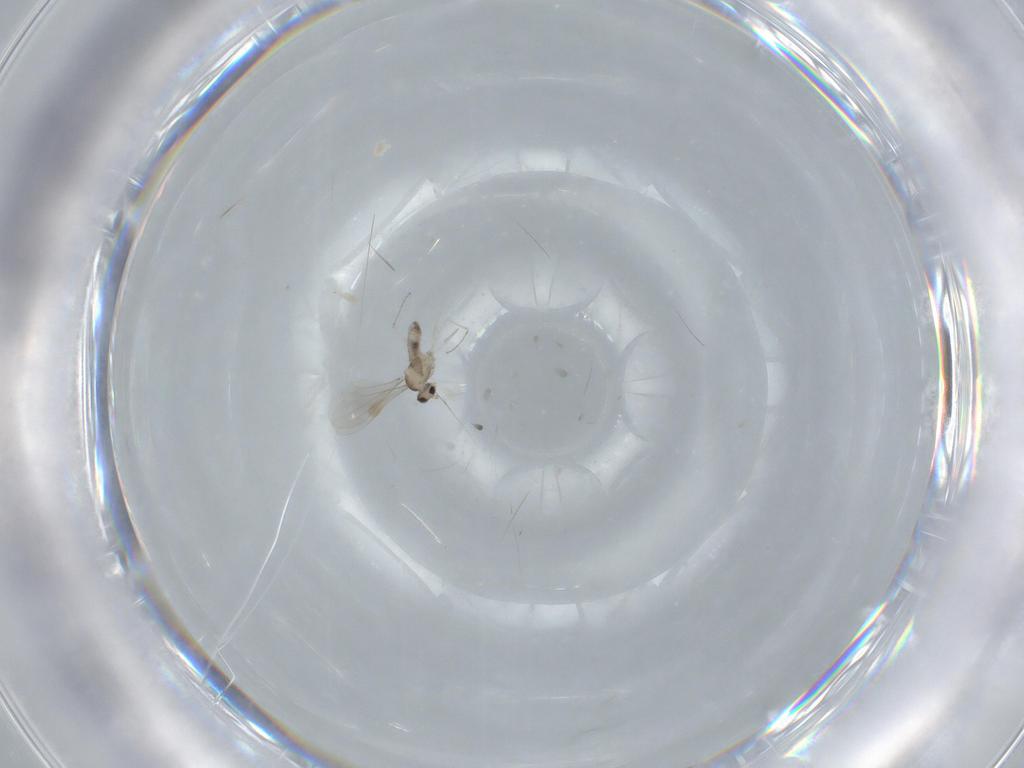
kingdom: Animalia
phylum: Arthropoda
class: Insecta
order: Diptera
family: Cecidomyiidae
